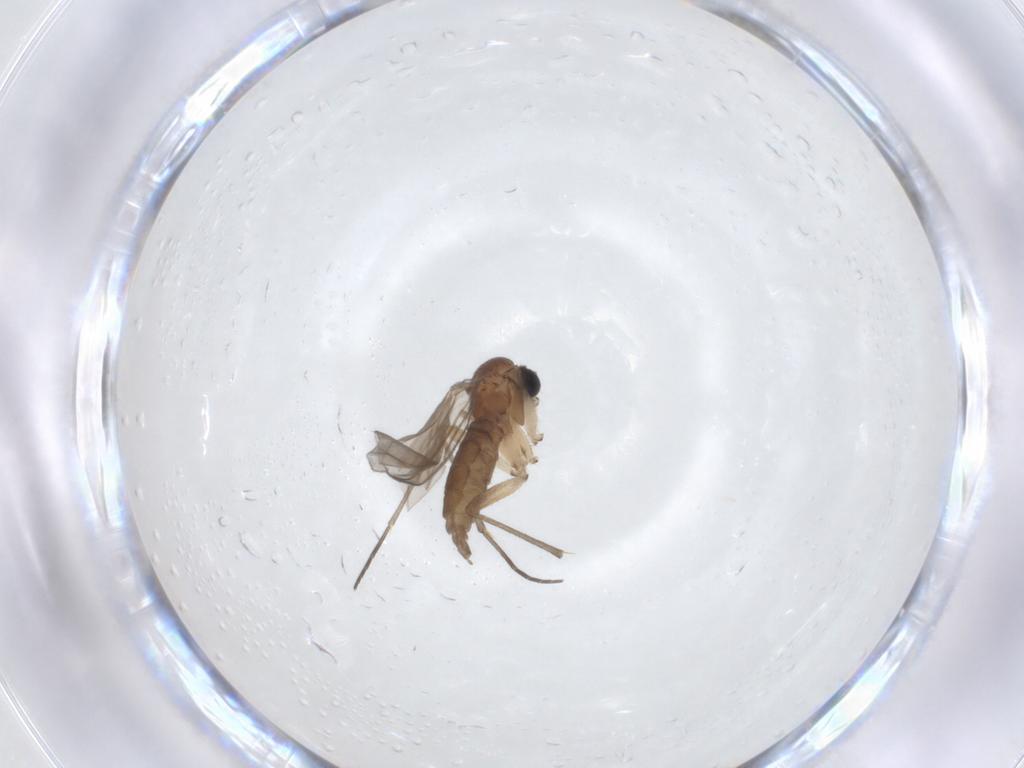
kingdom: Animalia
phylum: Arthropoda
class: Insecta
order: Diptera
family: Sciaridae
